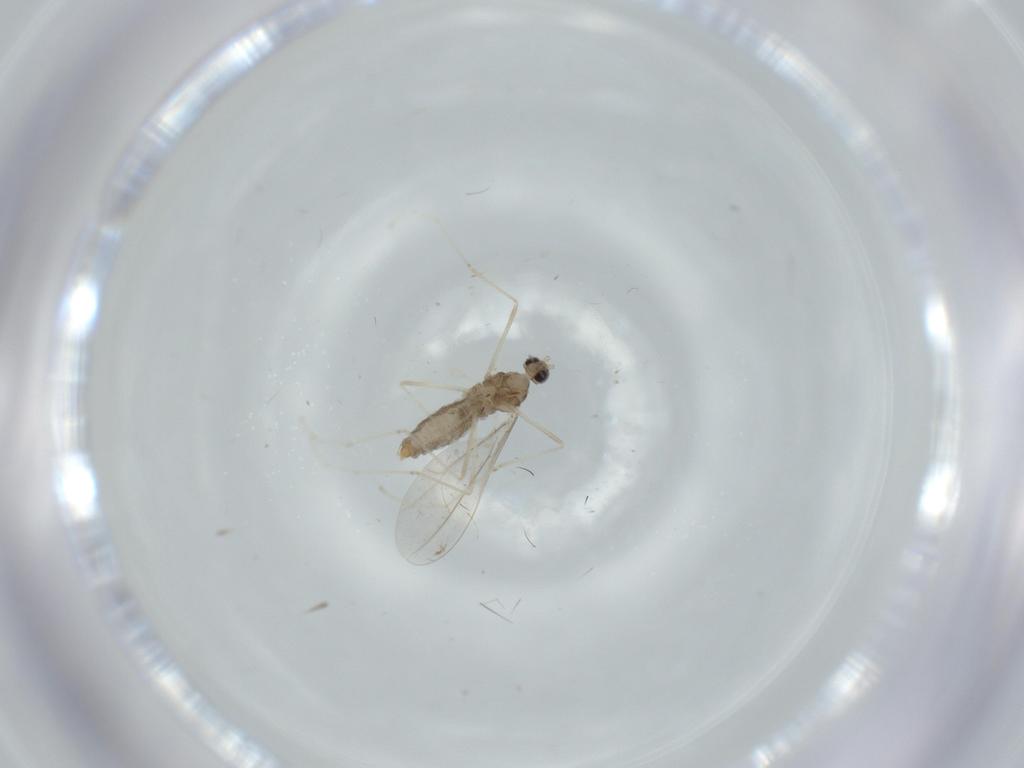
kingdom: Animalia
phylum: Arthropoda
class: Insecta
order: Diptera
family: Cecidomyiidae
